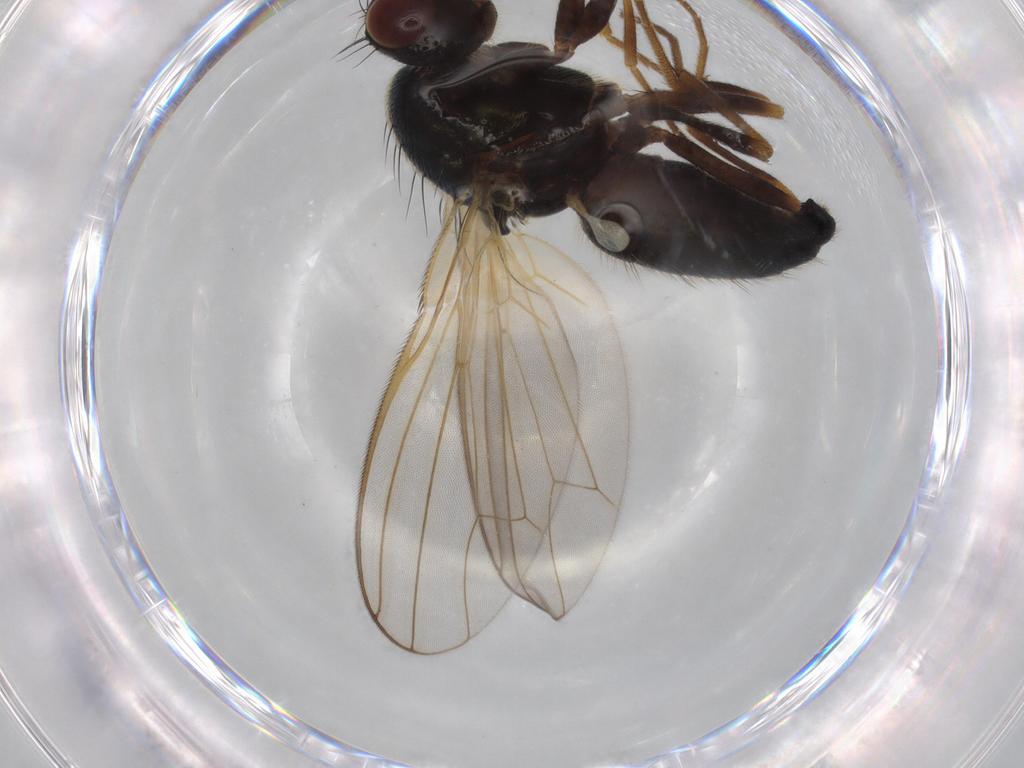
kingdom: Animalia
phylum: Arthropoda
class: Insecta
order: Diptera
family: Psilidae
